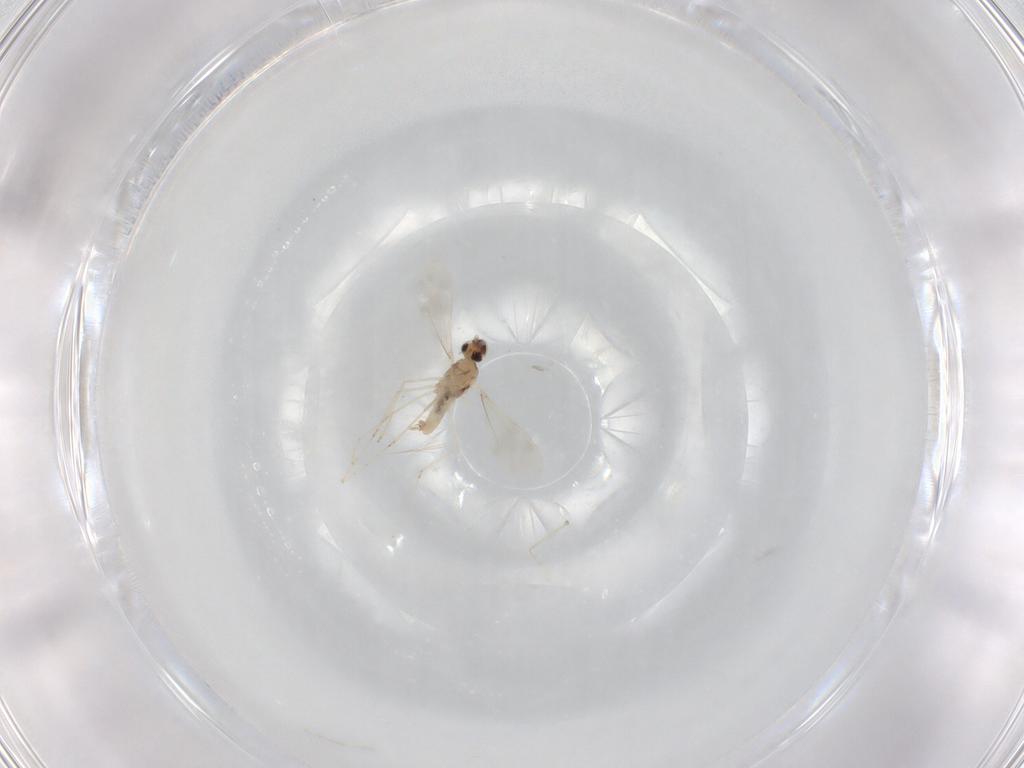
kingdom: Animalia
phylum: Arthropoda
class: Insecta
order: Diptera
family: Cecidomyiidae
